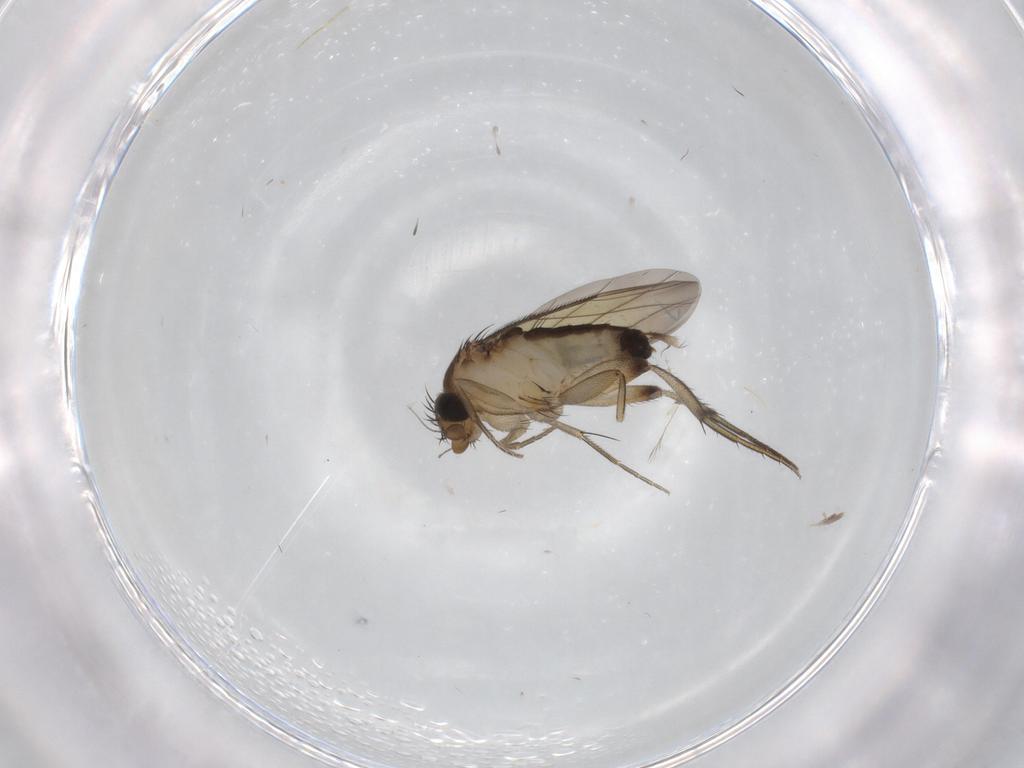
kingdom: Animalia
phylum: Arthropoda
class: Insecta
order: Diptera
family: Phoridae
